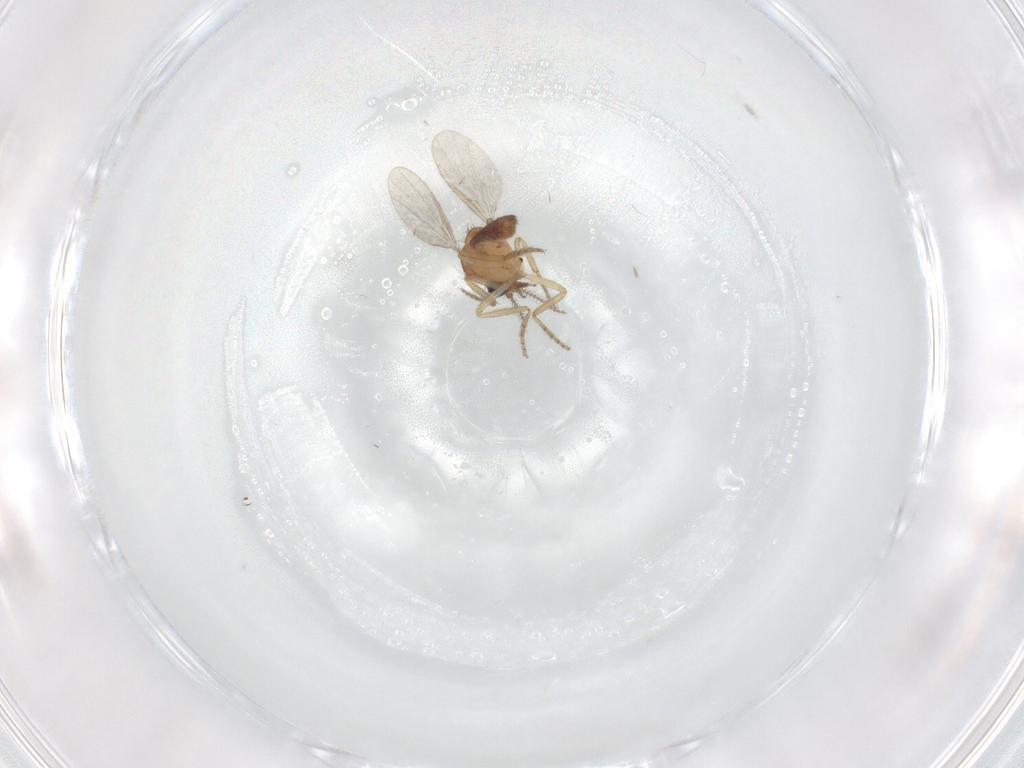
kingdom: Animalia
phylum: Arthropoda
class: Insecta
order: Diptera
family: Ceratopogonidae
